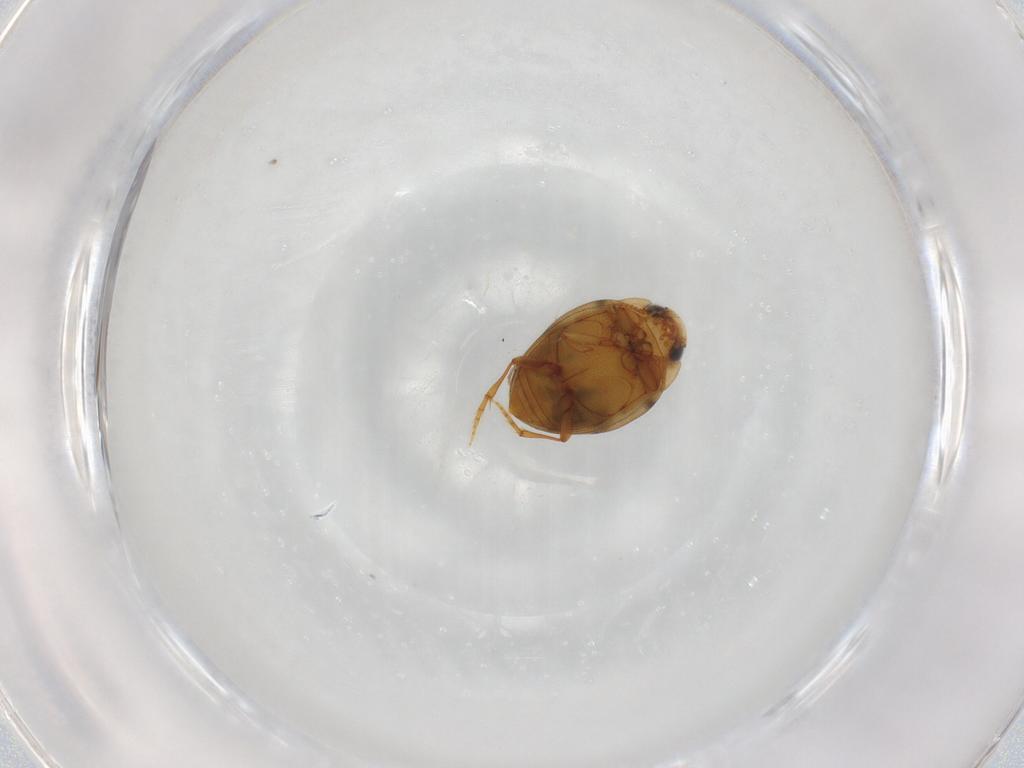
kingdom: Animalia
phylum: Arthropoda
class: Insecta
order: Coleoptera
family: Dytiscidae
